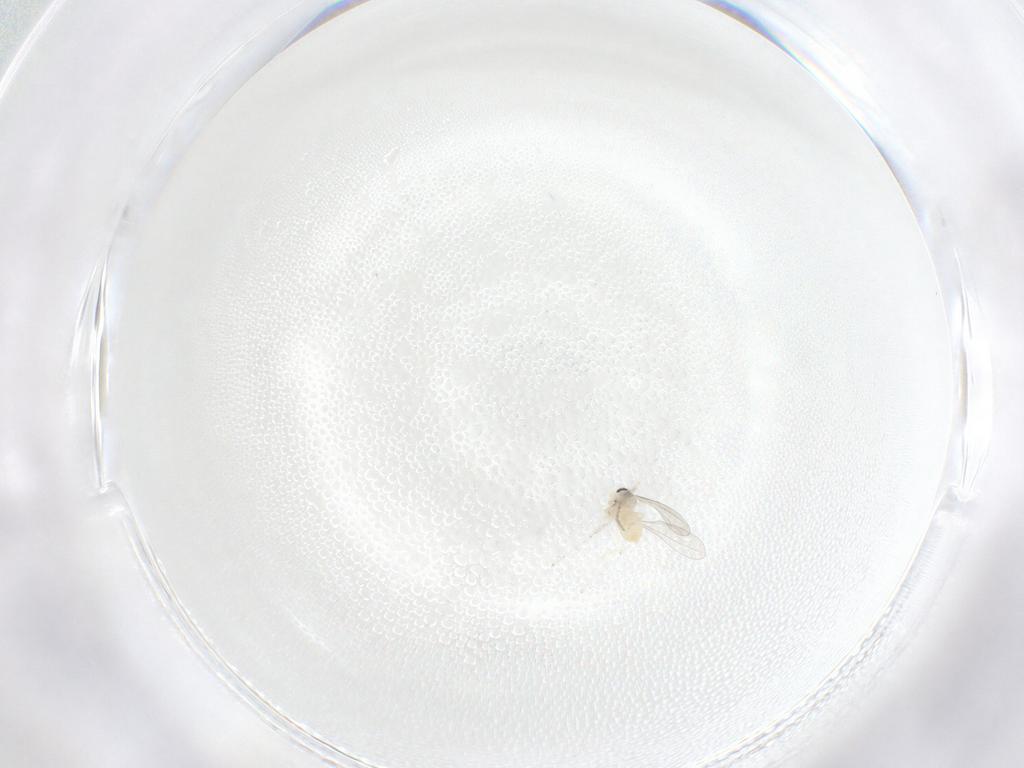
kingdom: Animalia
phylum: Arthropoda
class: Insecta
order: Diptera
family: Cecidomyiidae
